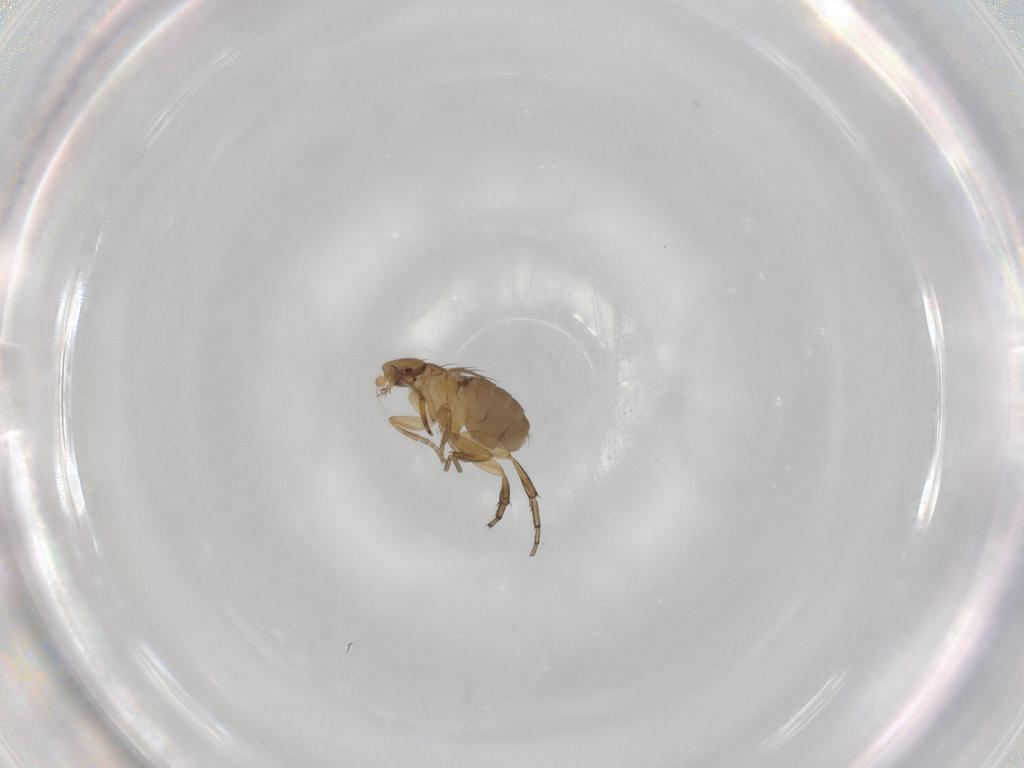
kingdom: Animalia
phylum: Arthropoda
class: Insecta
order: Diptera
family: Phoridae
